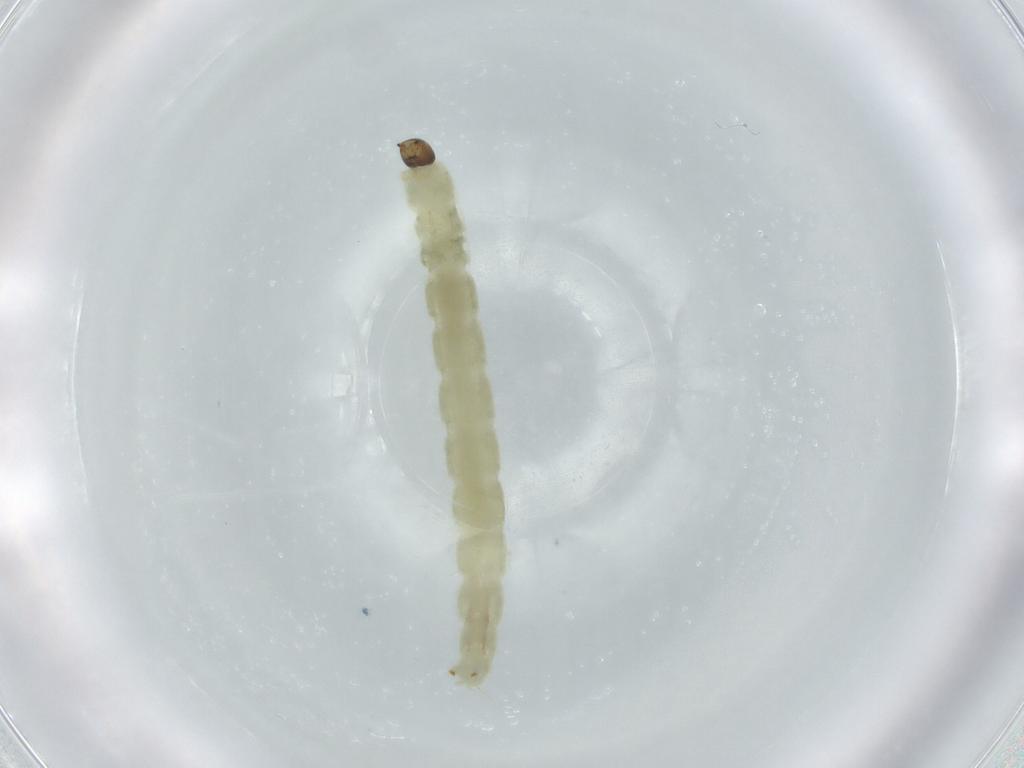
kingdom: Animalia
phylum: Arthropoda
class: Insecta
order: Diptera
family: Chironomidae
